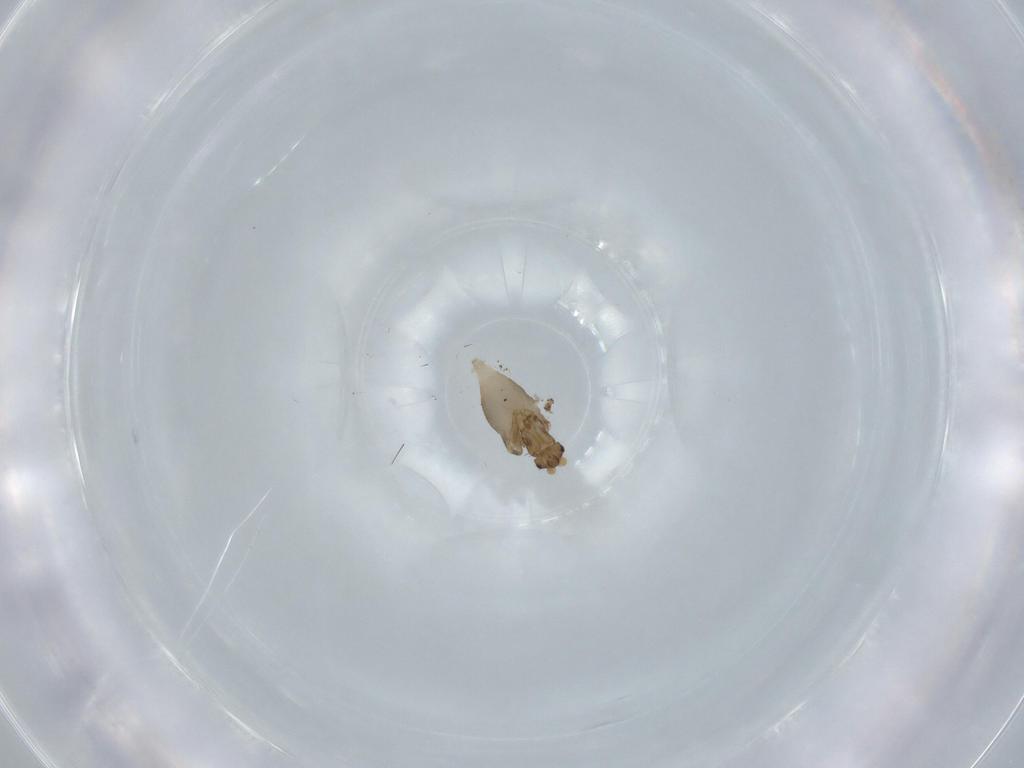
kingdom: Animalia
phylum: Arthropoda
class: Insecta
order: Diptera
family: Phoridae
